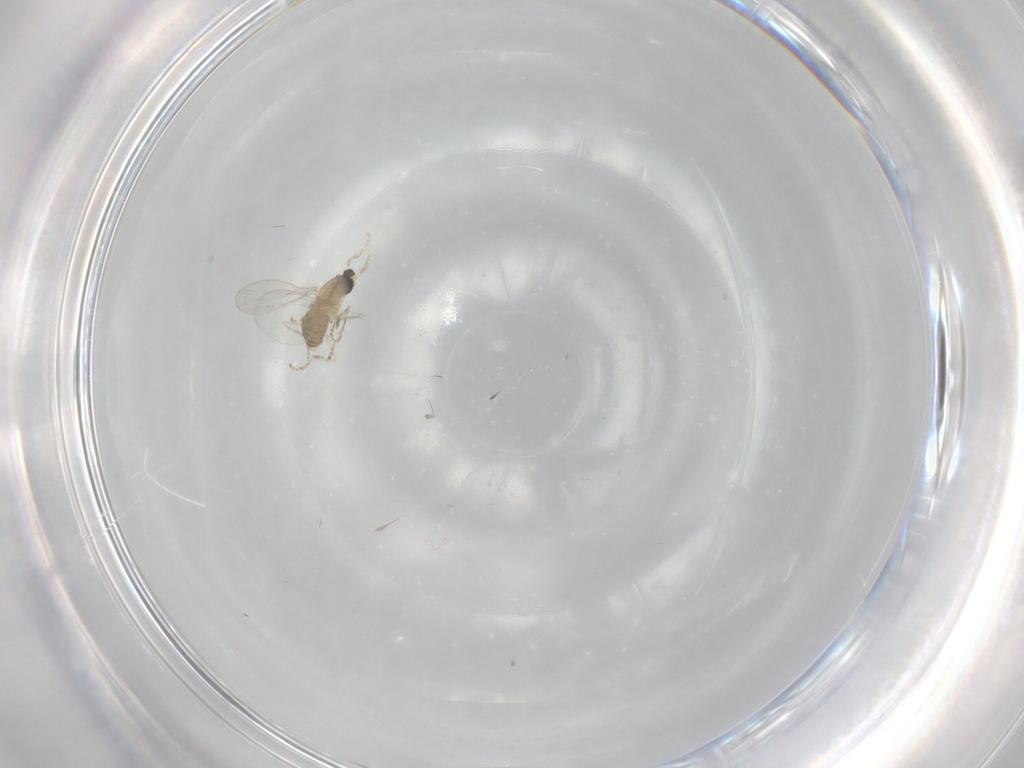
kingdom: Animalia
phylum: Arthropoda
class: Insecta
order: Diptera
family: Cecidomyiidae
